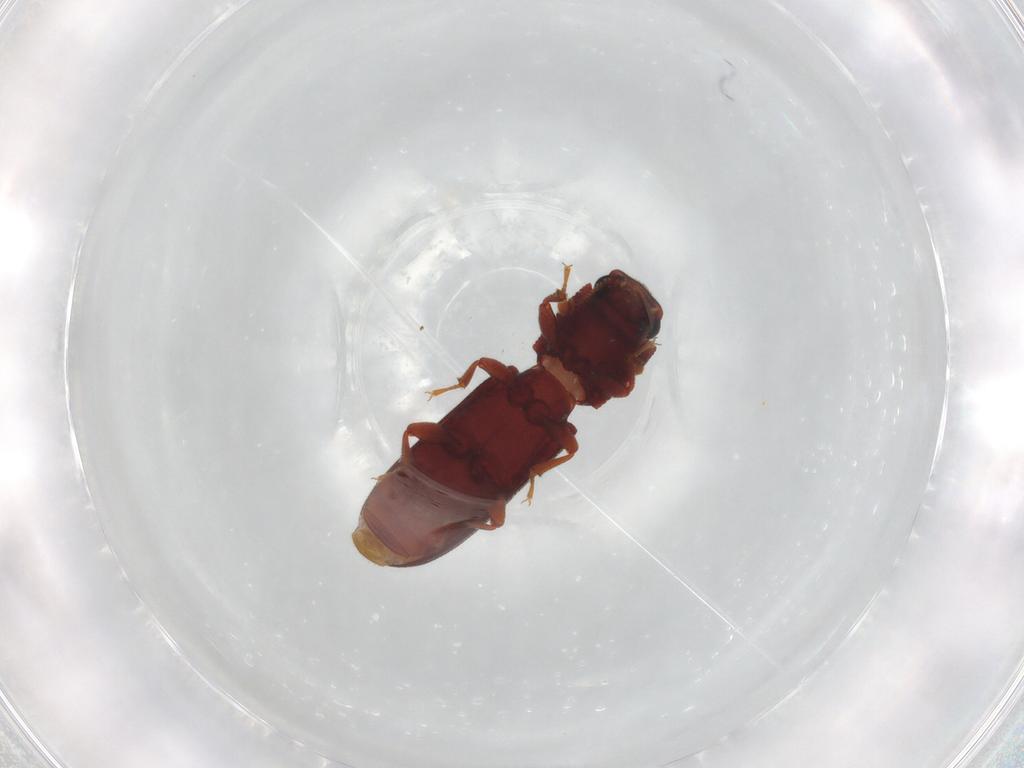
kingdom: Animalia
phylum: Arthropoda
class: Insecta
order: Coleoptera
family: Zopheridae
